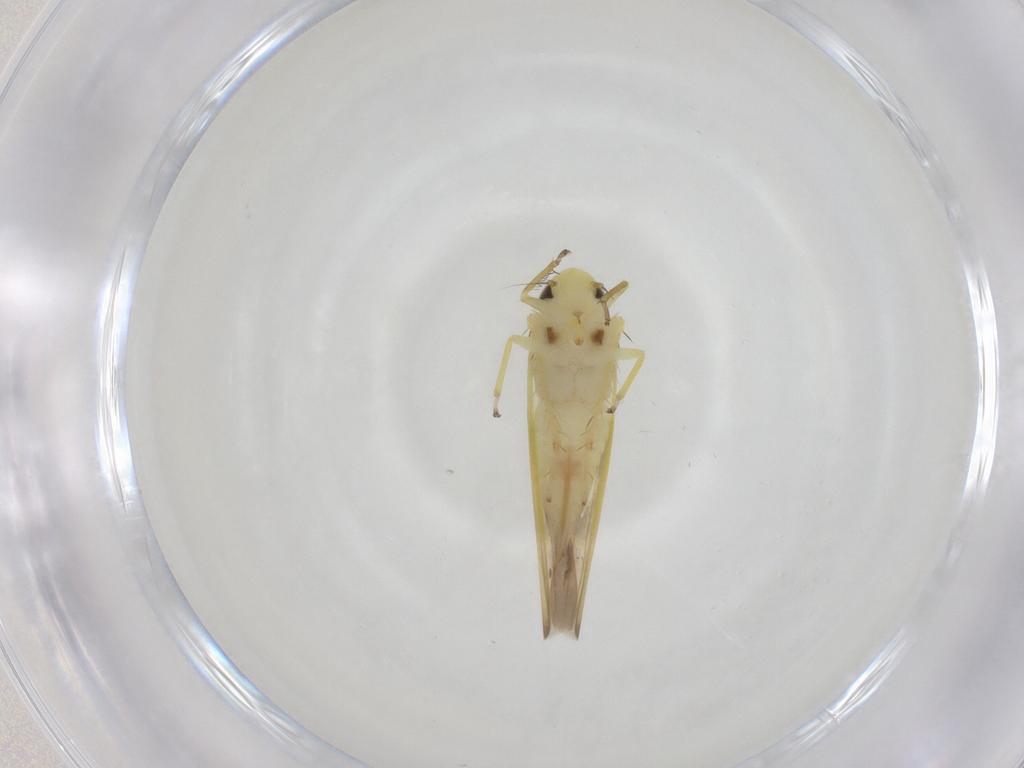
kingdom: Animalia
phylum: Arthropoda
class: Insecta
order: Hemiptera
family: Cicadellidae
